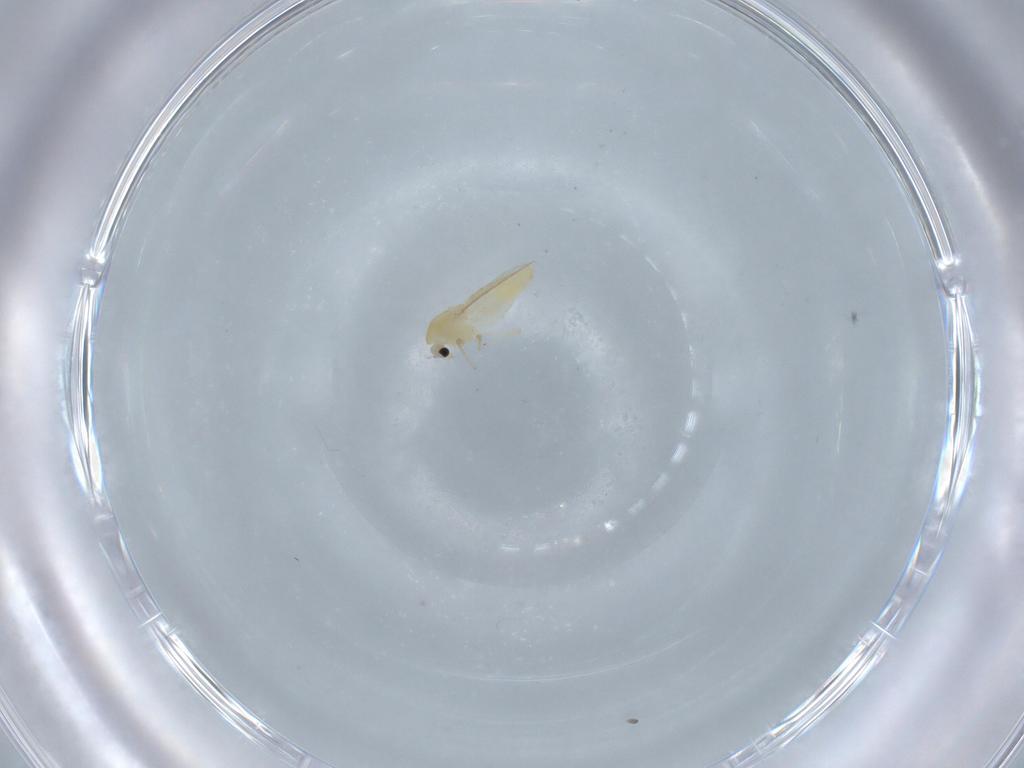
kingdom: Animalia
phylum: Arthropoda
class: Insecta
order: Diptera
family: Chironomidae
